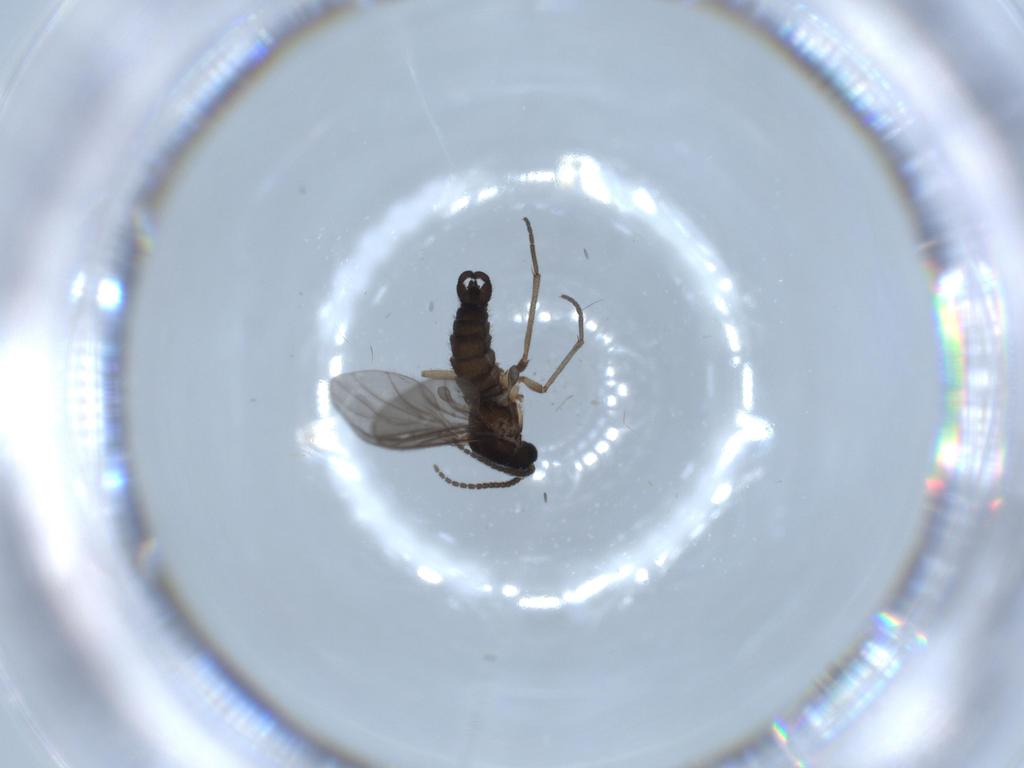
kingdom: Animalia
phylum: Arthropoda
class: Insecta
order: Diptera
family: Sciaridae
